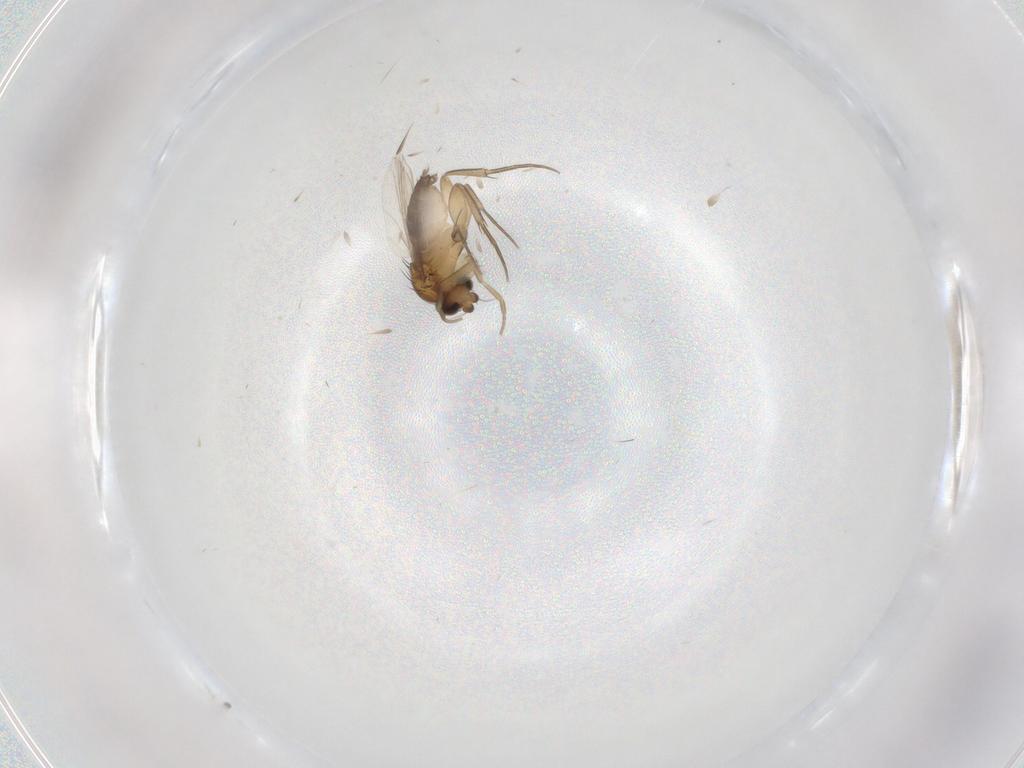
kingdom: Animalia
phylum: Arthropoda
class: Insecta
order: Diptera
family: Phoridae
